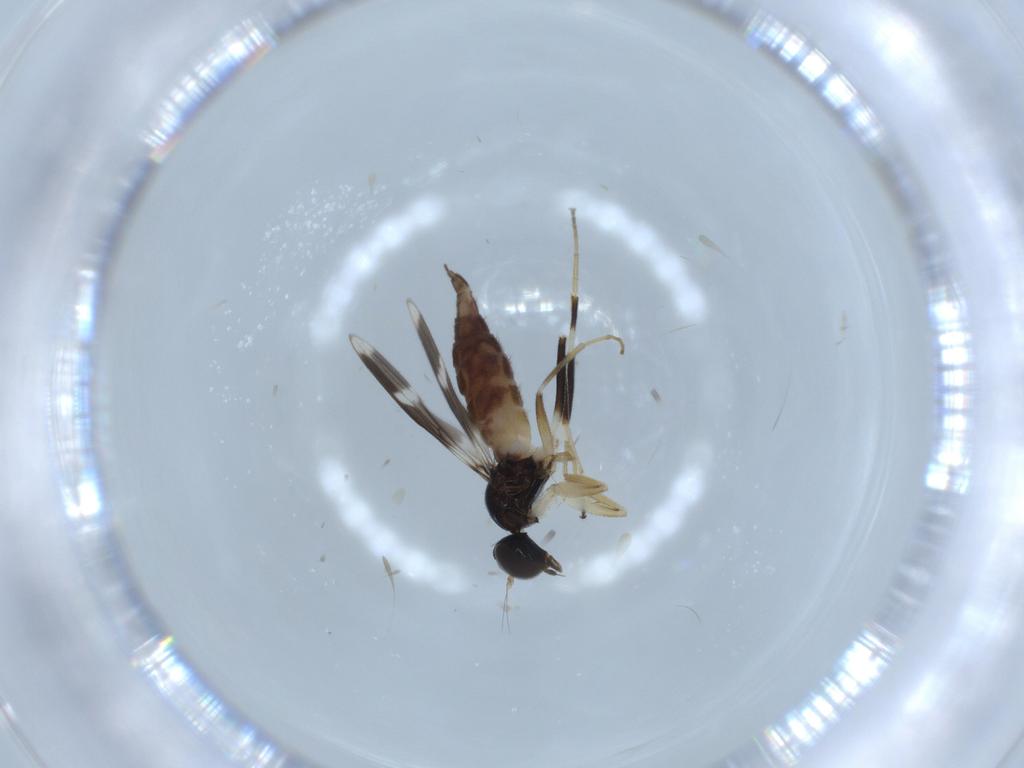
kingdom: Animalia
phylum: Arthropoda
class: Insecta
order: Diptera
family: Hybotidae
